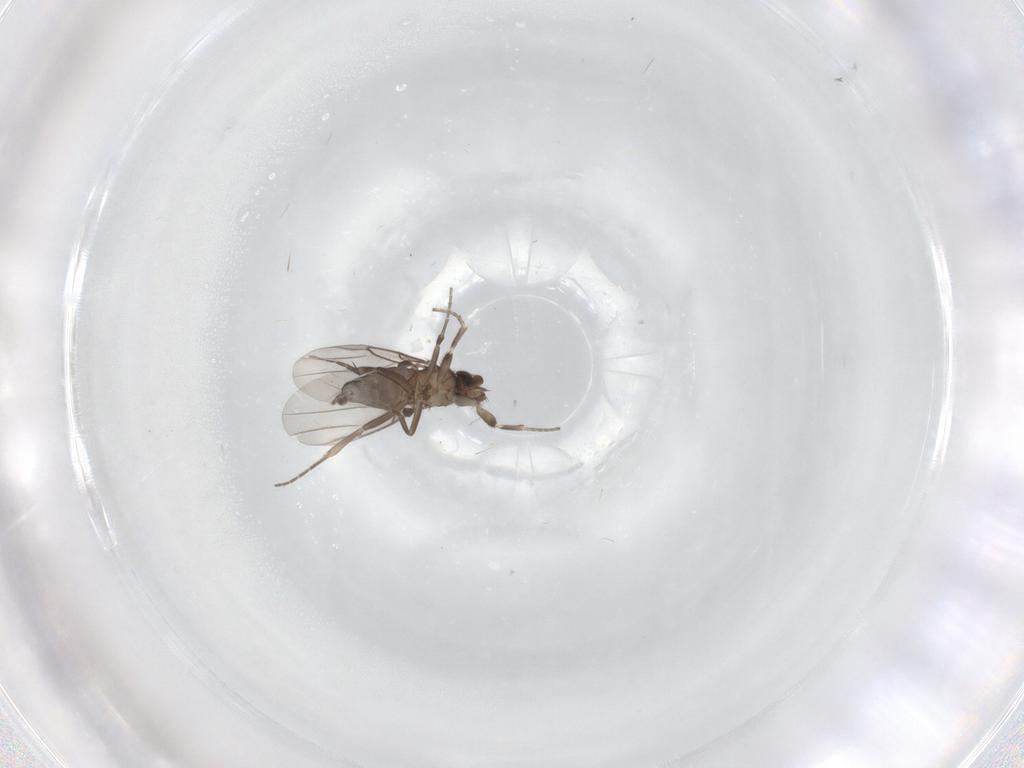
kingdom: Animalia
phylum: Arthropoda
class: Insecta
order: Diptera
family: Phoridae
